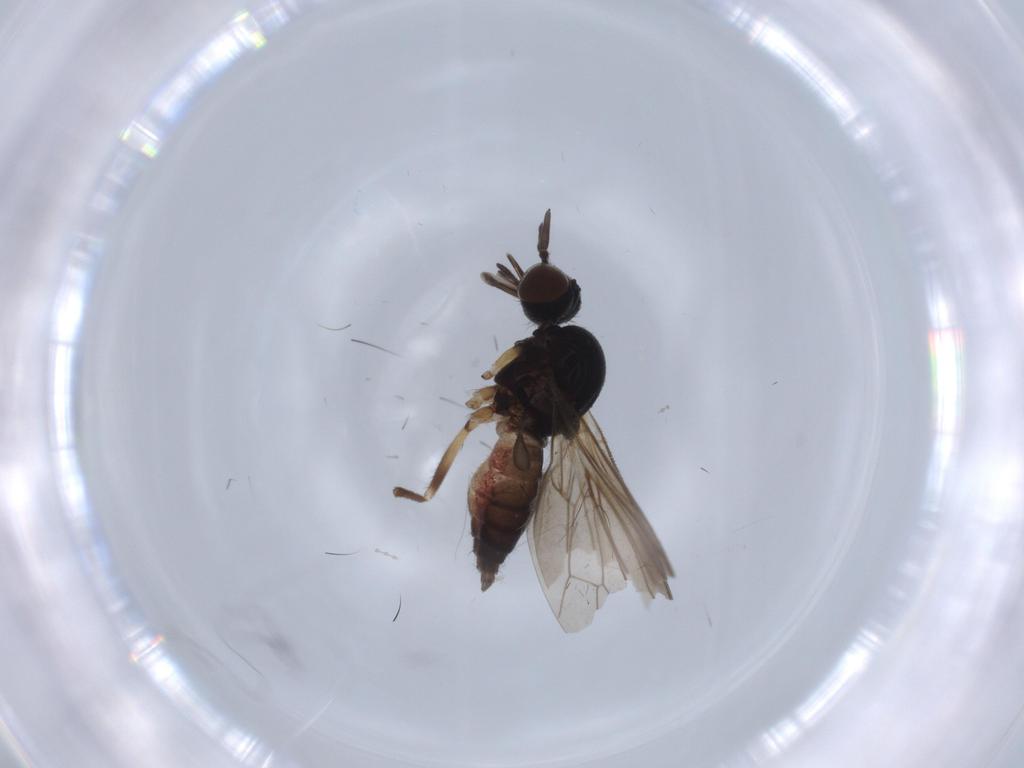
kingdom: Animalia
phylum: Arthropoda
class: Insecta
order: Diptera
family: Iteaphilidae
